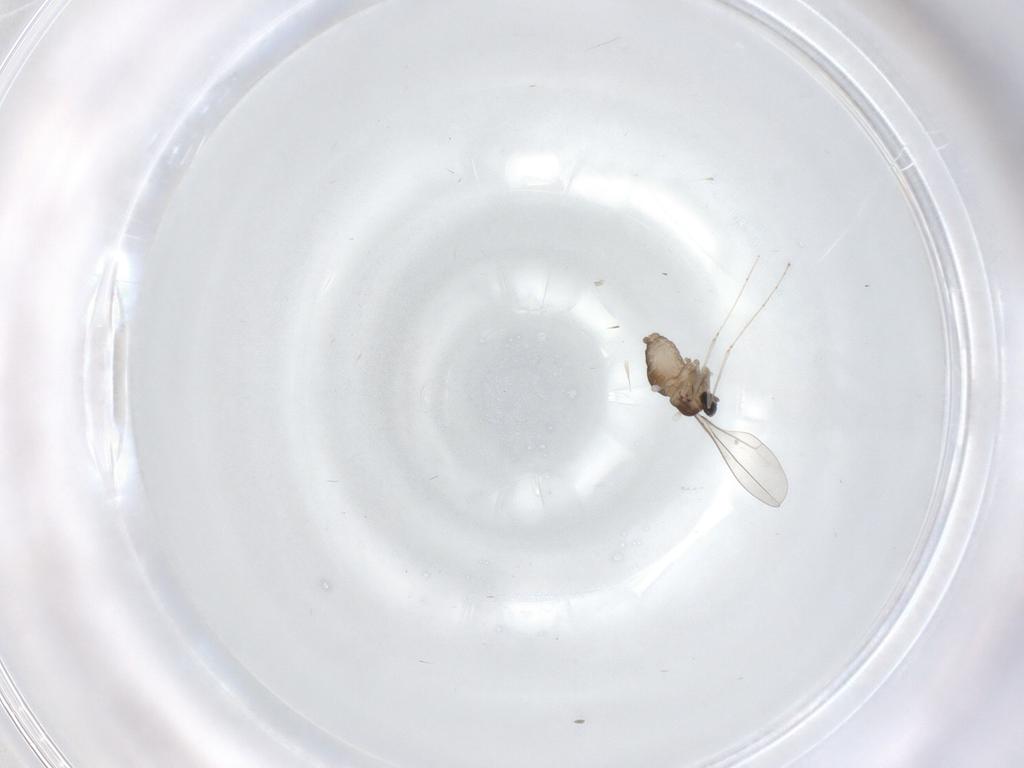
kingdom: Animalia
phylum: Arthropoda
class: Insecta
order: Diptera
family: Cecidomyiidae
